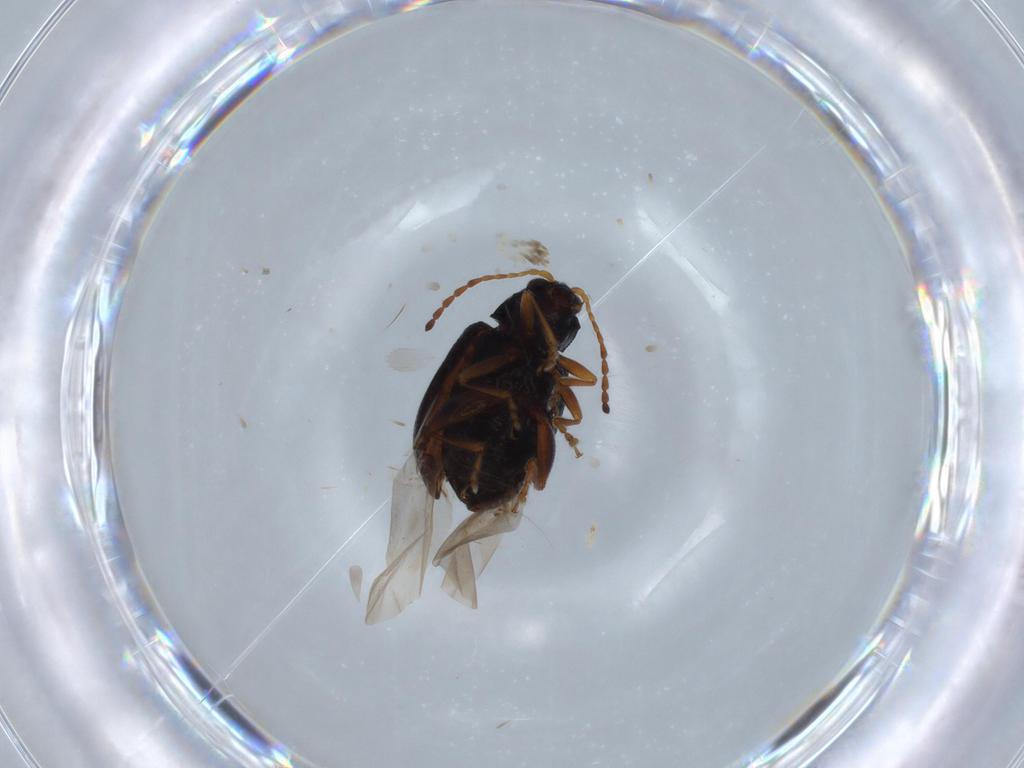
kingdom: Animalia
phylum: Arthropoda
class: Insecta
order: Coleoptera
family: Chrysomelidae
